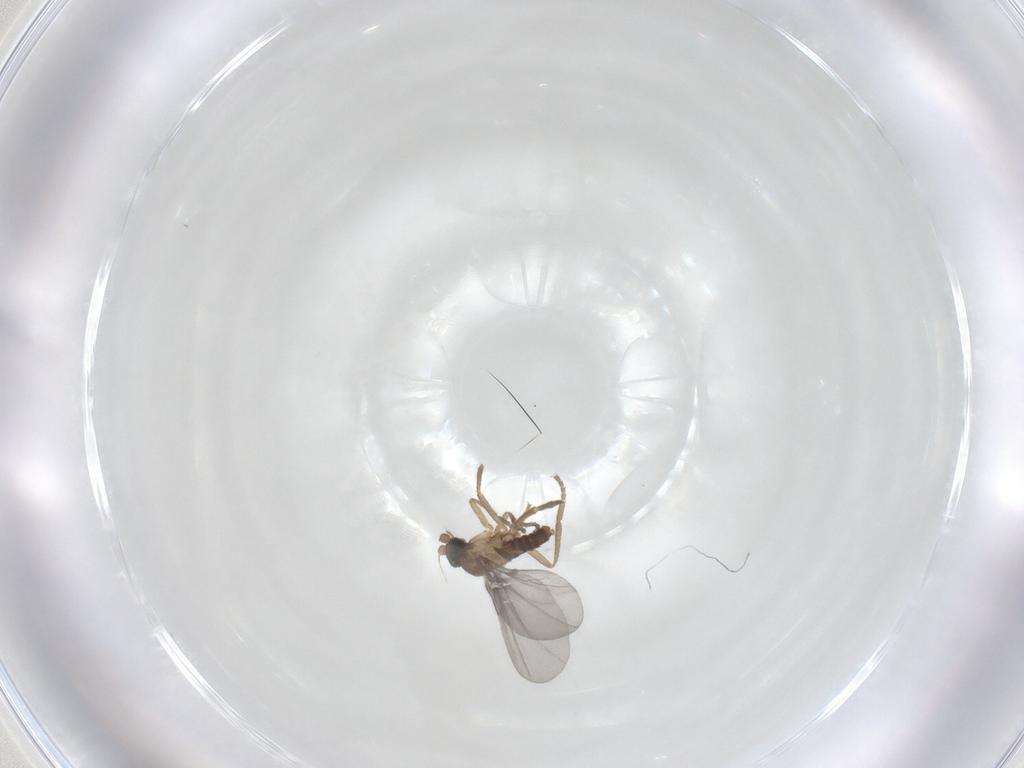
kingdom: Animalia
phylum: Arthropoda
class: Insecta
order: Diptera
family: Phoridae
